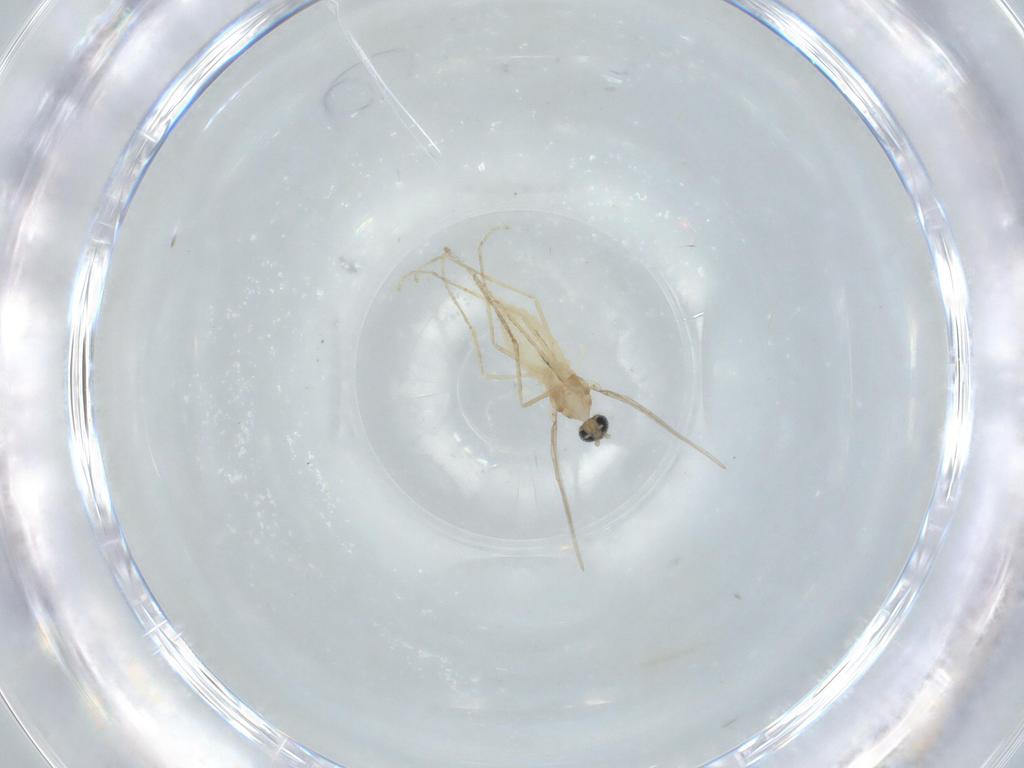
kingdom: Animalia
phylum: Arthropoda
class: Insecta
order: Diptera
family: Cecidomyiidae
